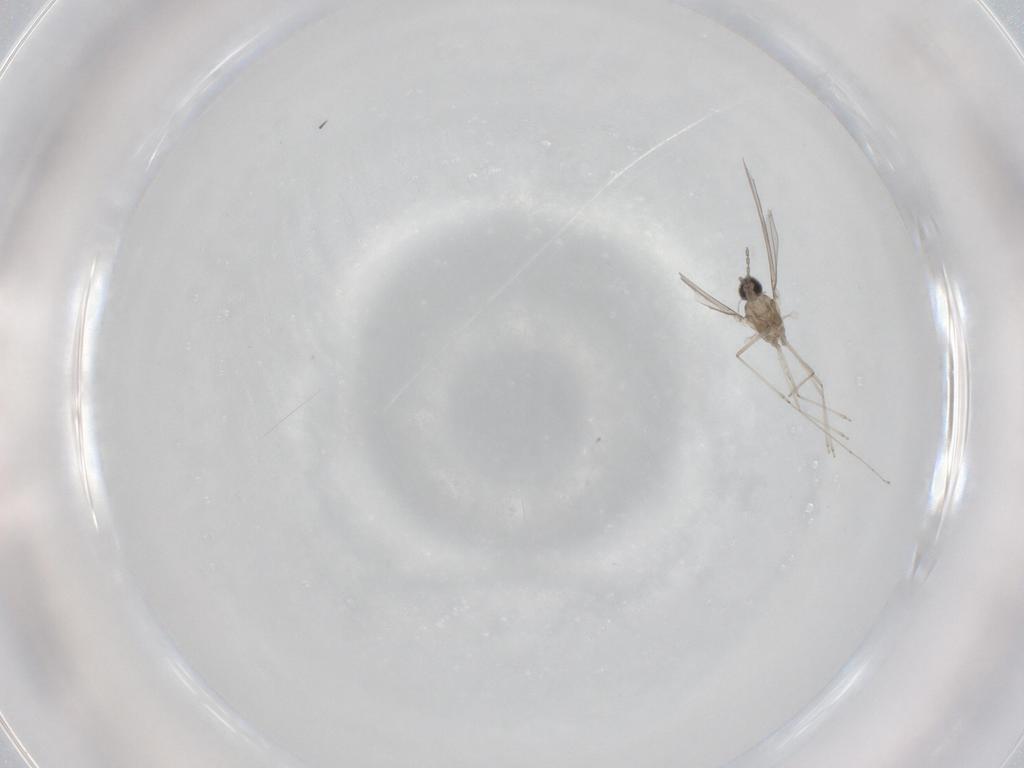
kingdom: Animalia
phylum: Arthropoda
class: Insecta
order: Diptera
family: Cecidomyiidae
